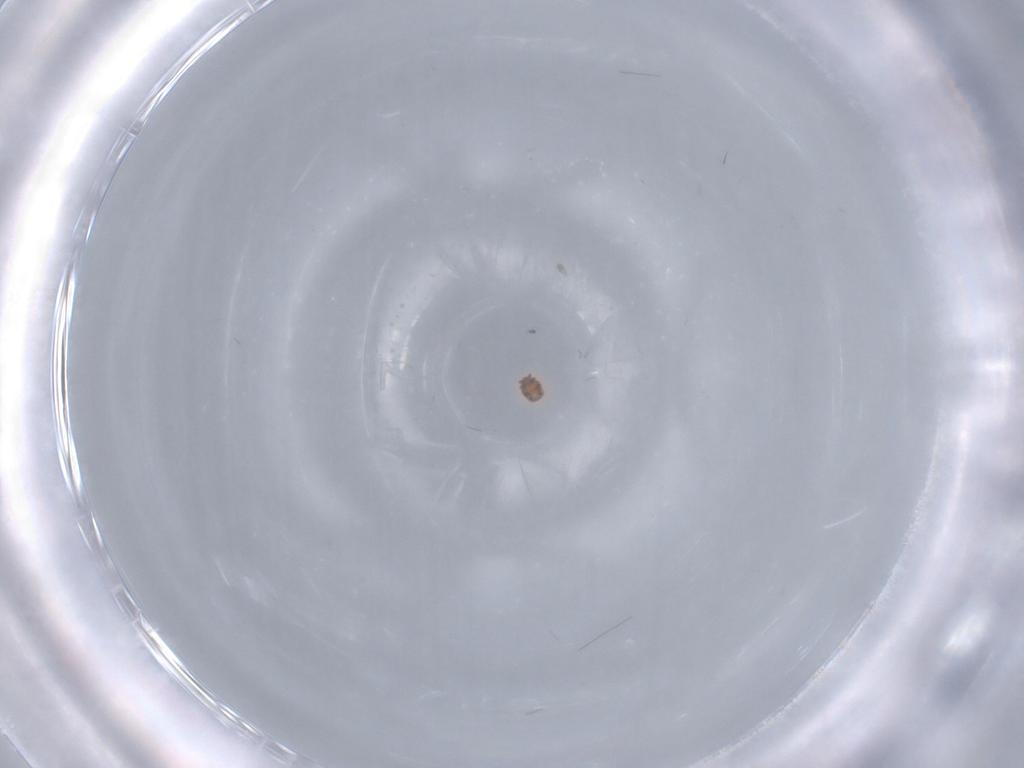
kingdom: Animalia
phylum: Arthropoda
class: Arachnida
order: Trombidiformes
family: Neopygmephoridae
